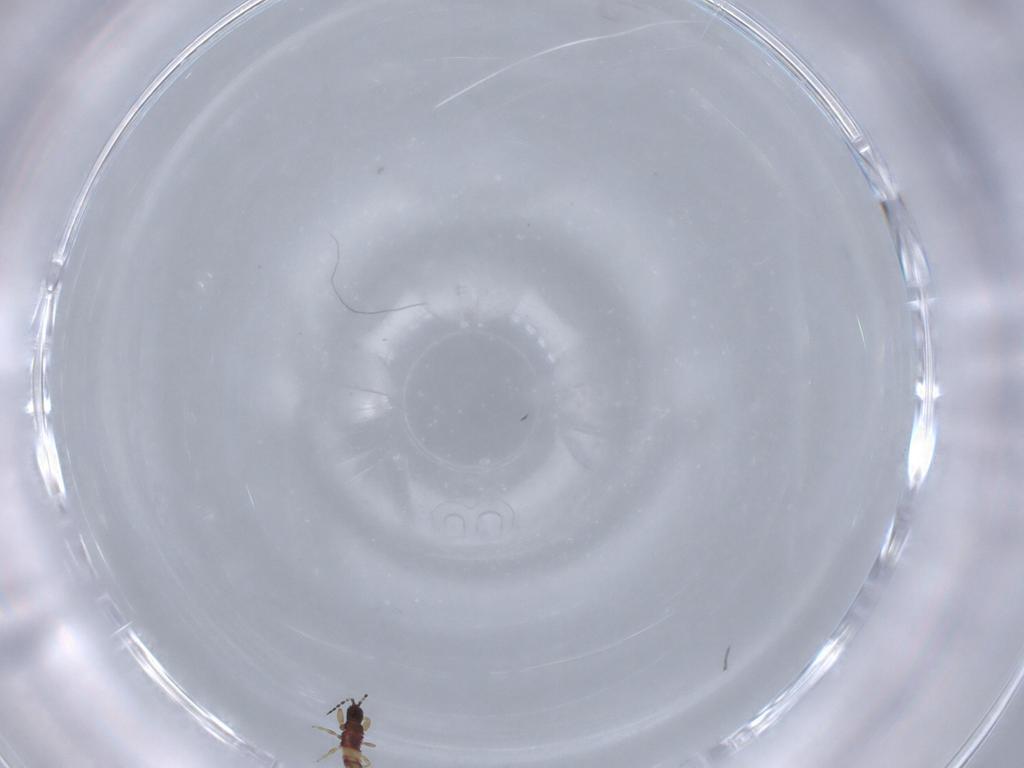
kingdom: Animalia
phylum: Arthropoda
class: Insecta
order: Thysanoptera
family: Phlaeothripidae
